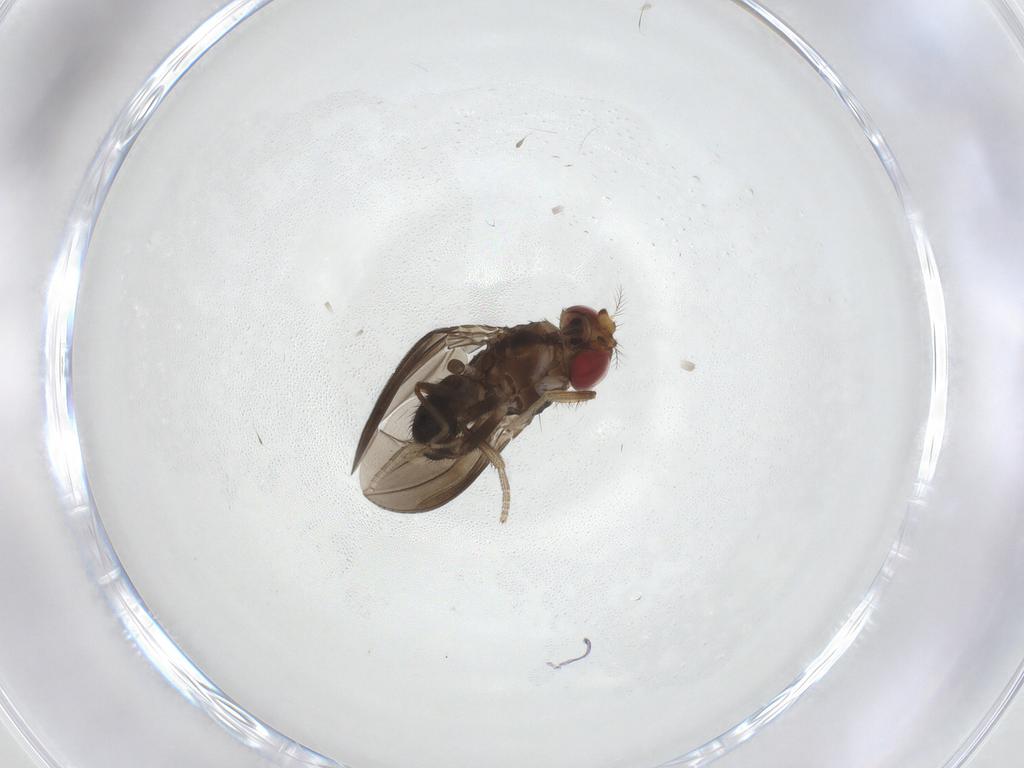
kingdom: Animalia
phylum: Arthropoda
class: Insecta
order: Diptera
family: Drosophilidae
